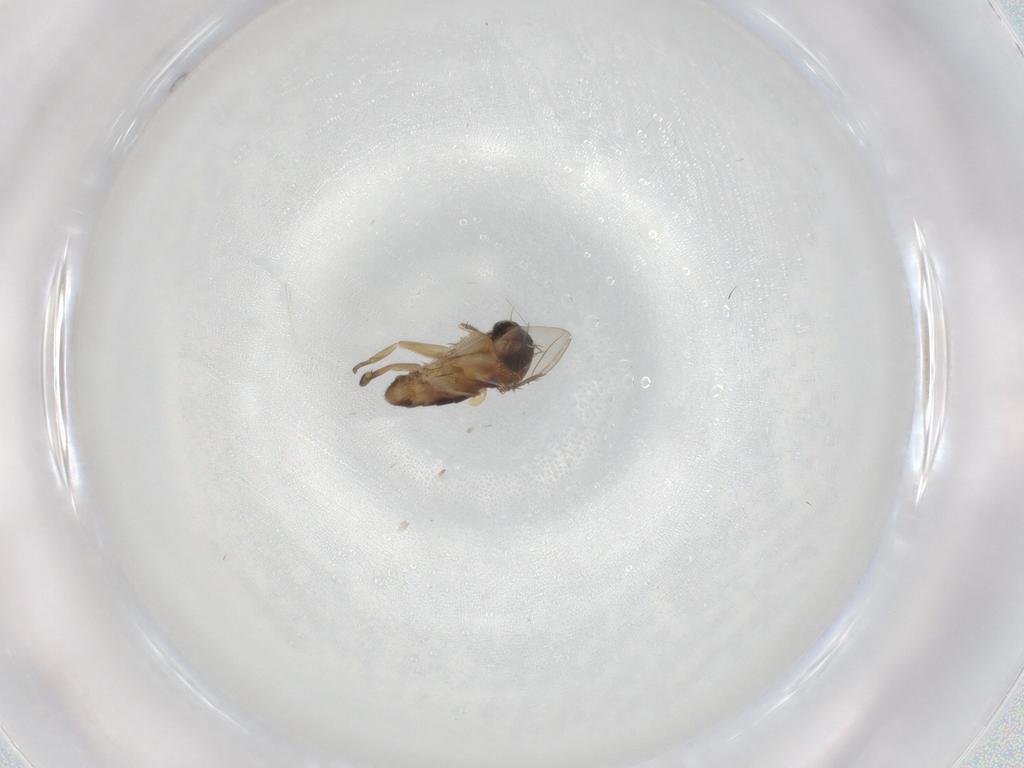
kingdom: Animalia
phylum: Arthropoda
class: Insecta
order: Diptera
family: Phoridae
